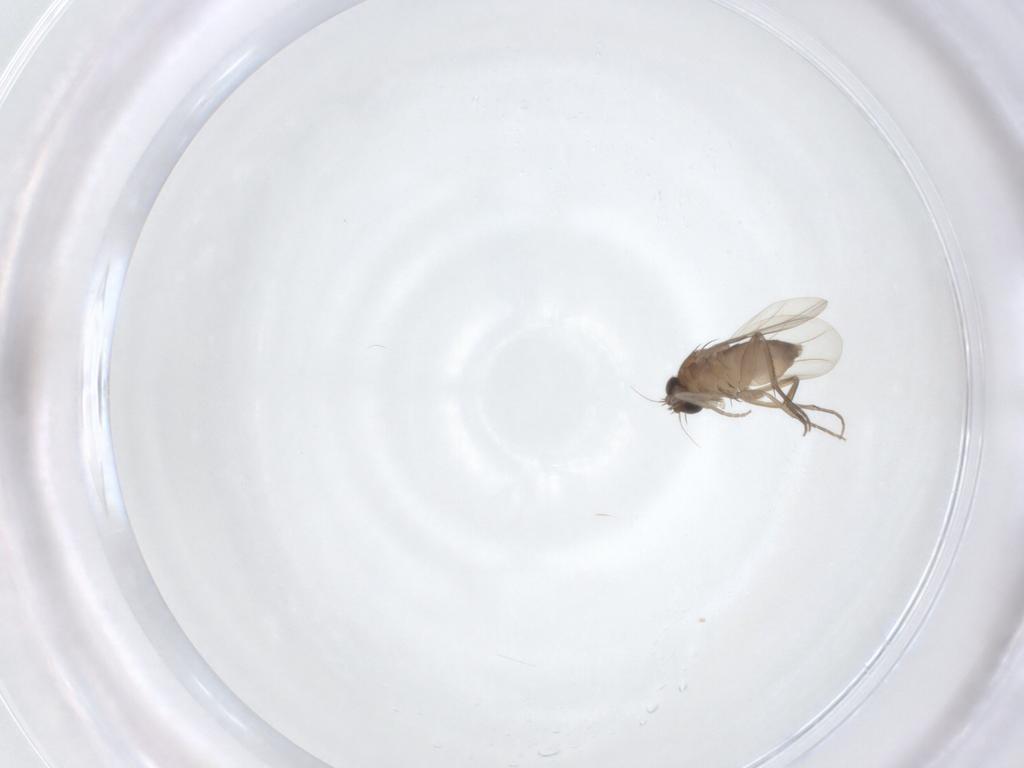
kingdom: Animalia
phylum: Arthropoda
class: Insecta
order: Diptera
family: Phoridae
